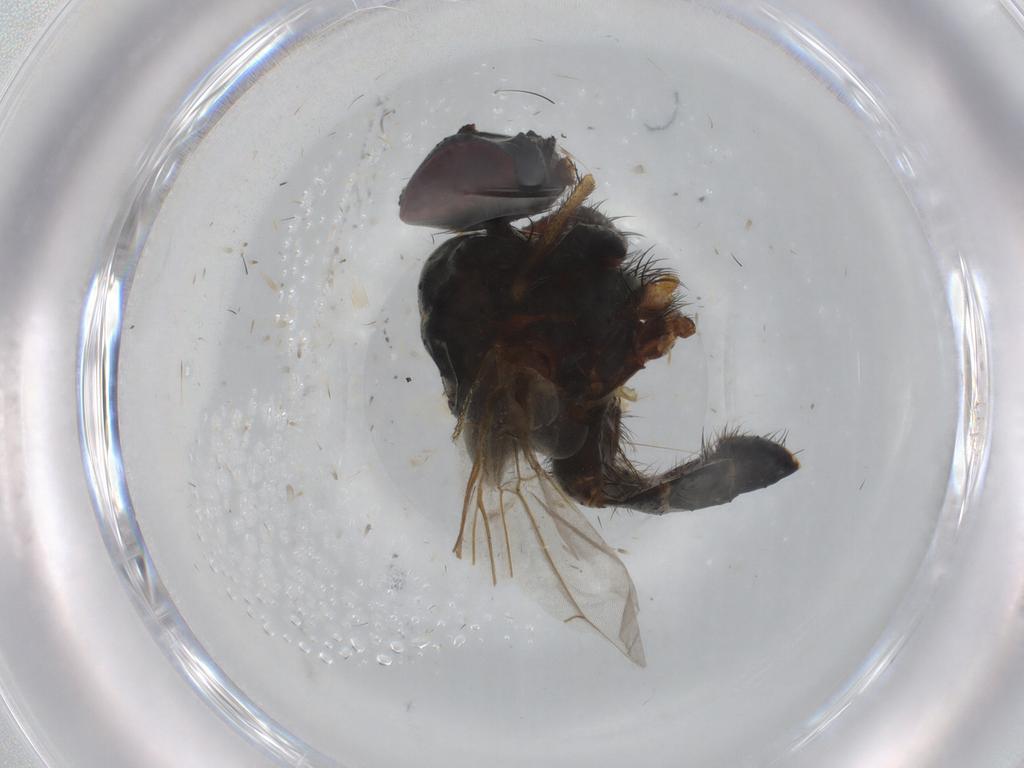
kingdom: Animalia
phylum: Arthropoda
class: Insecta
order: Diptera
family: Muscidae
